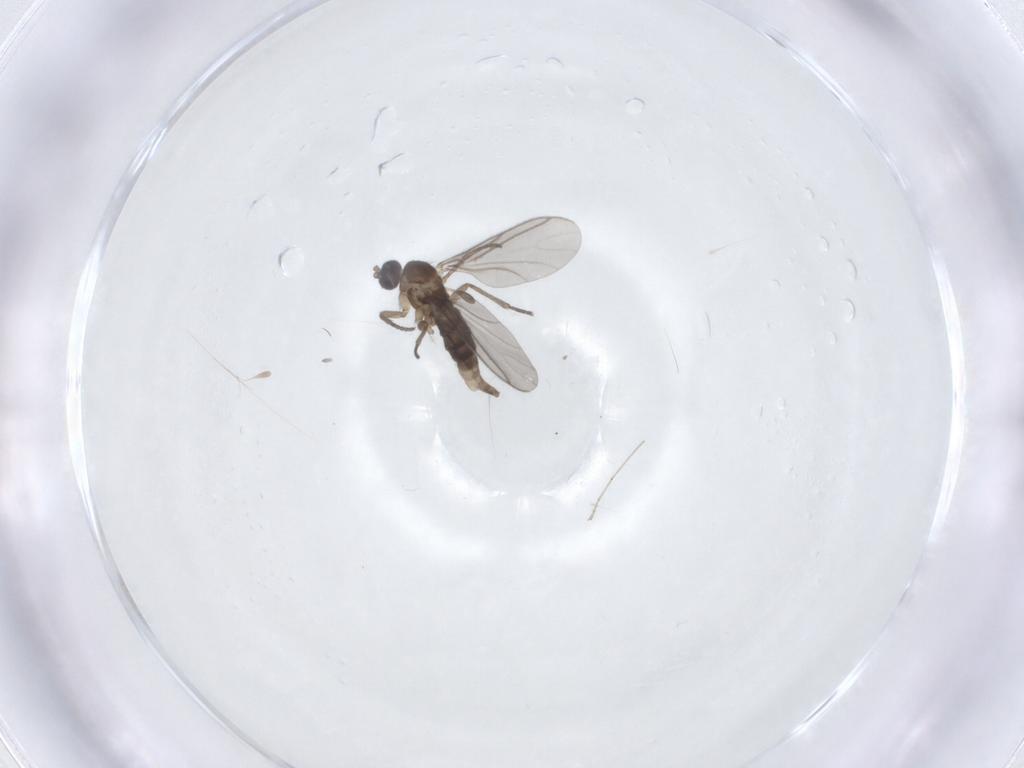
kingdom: Animalia
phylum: Arthropoda
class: Insecta
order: Diptera
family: Cecidomyiidae
